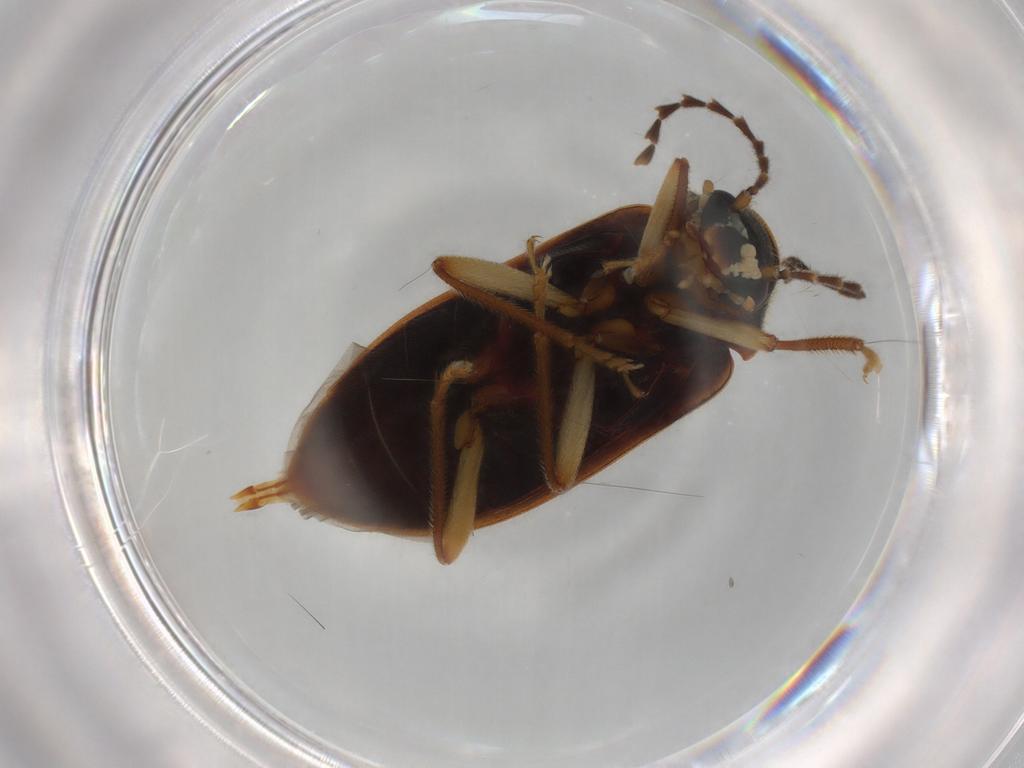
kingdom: Animalia
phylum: Arthropoda
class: Insecta
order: Coleoptera
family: Ptilodactylidae
